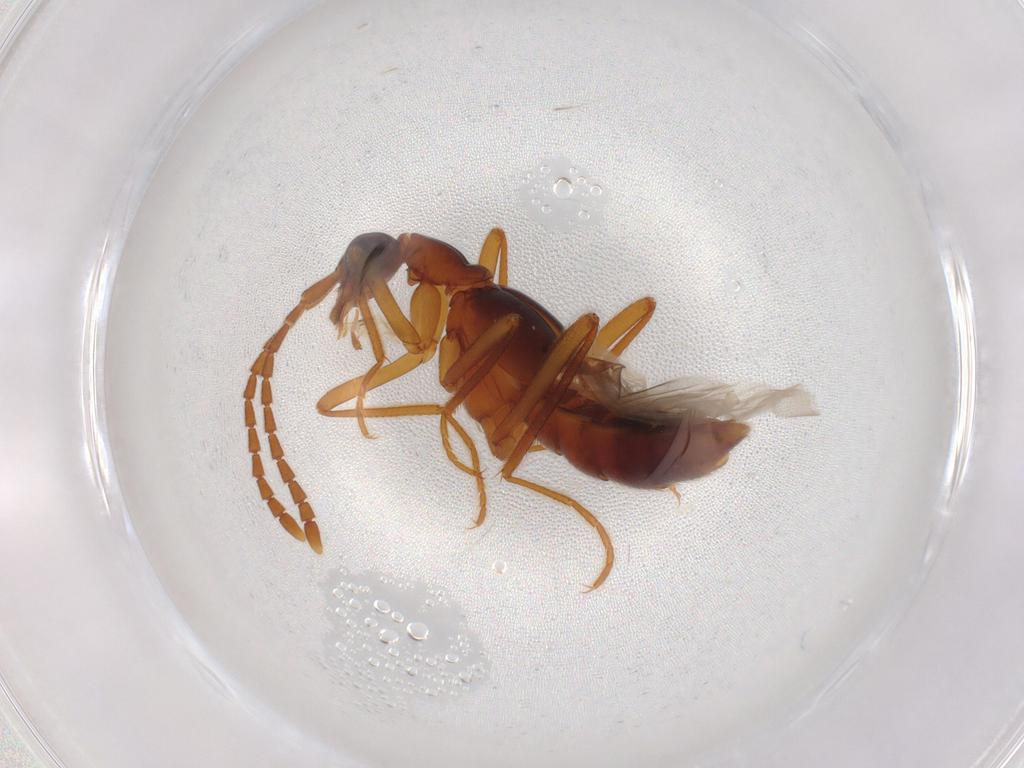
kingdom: Animalia
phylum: Arthropoda
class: Insecta
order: Coleoptera
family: Staphylinidae
